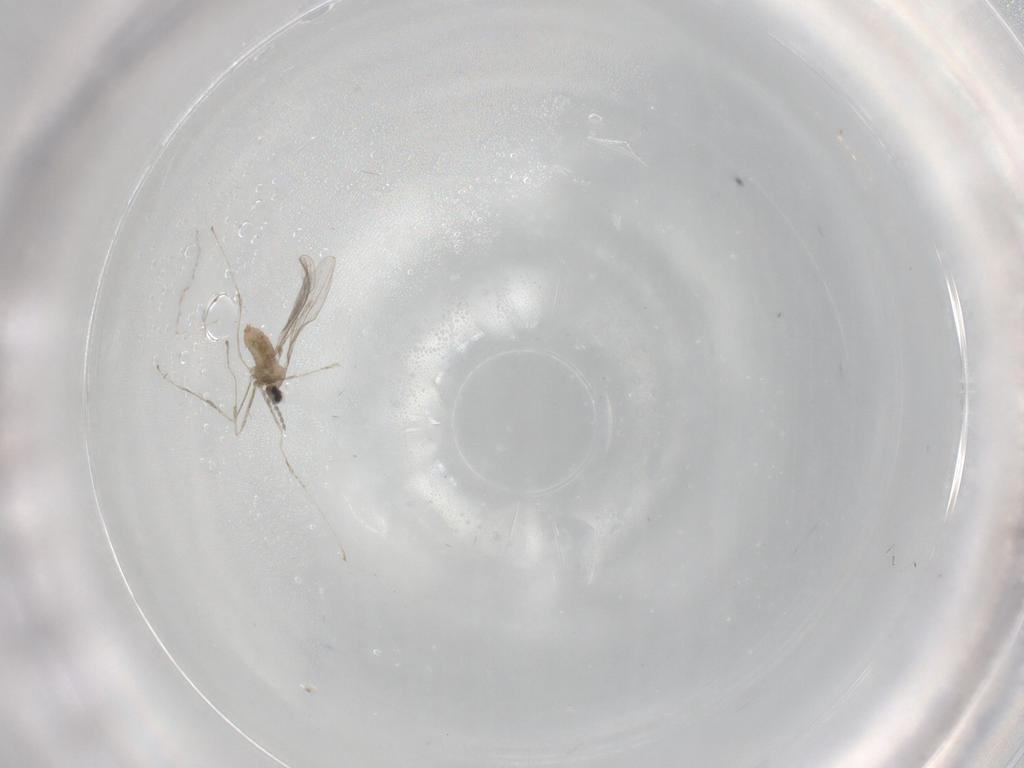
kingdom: Animalia
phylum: Arthropoda
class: Insecta
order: Diptera
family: Cecidomyiidae
